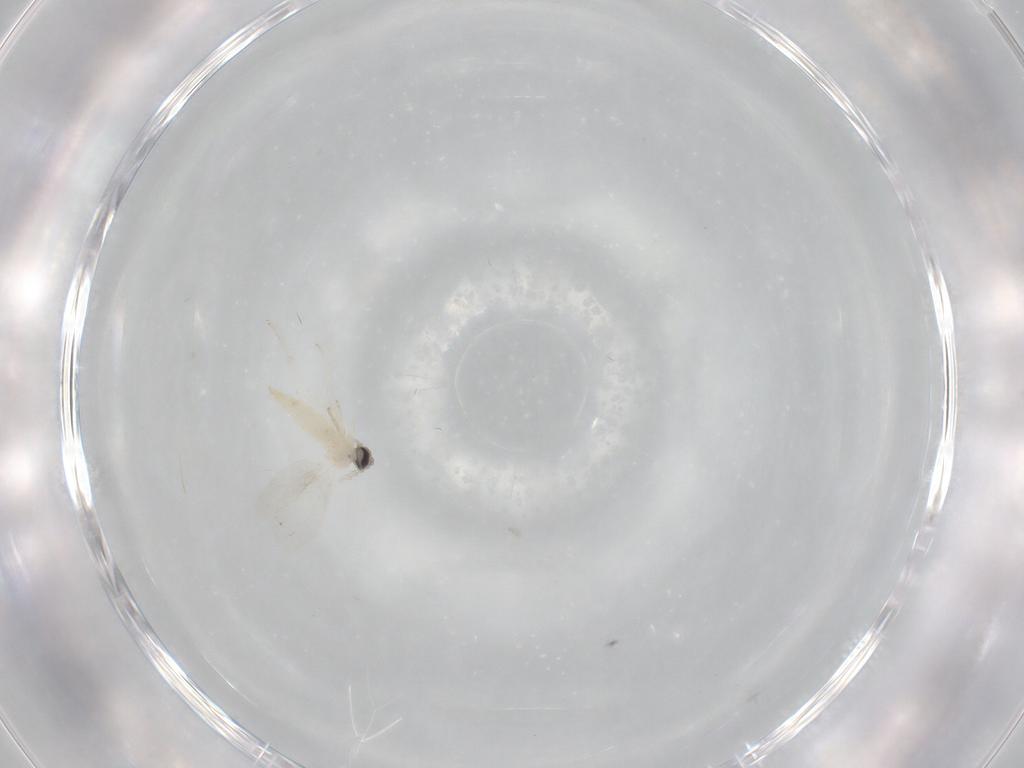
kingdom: Animalia
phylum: Arthropoda
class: Insecta
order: Diptera
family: Cecidomyiidae
